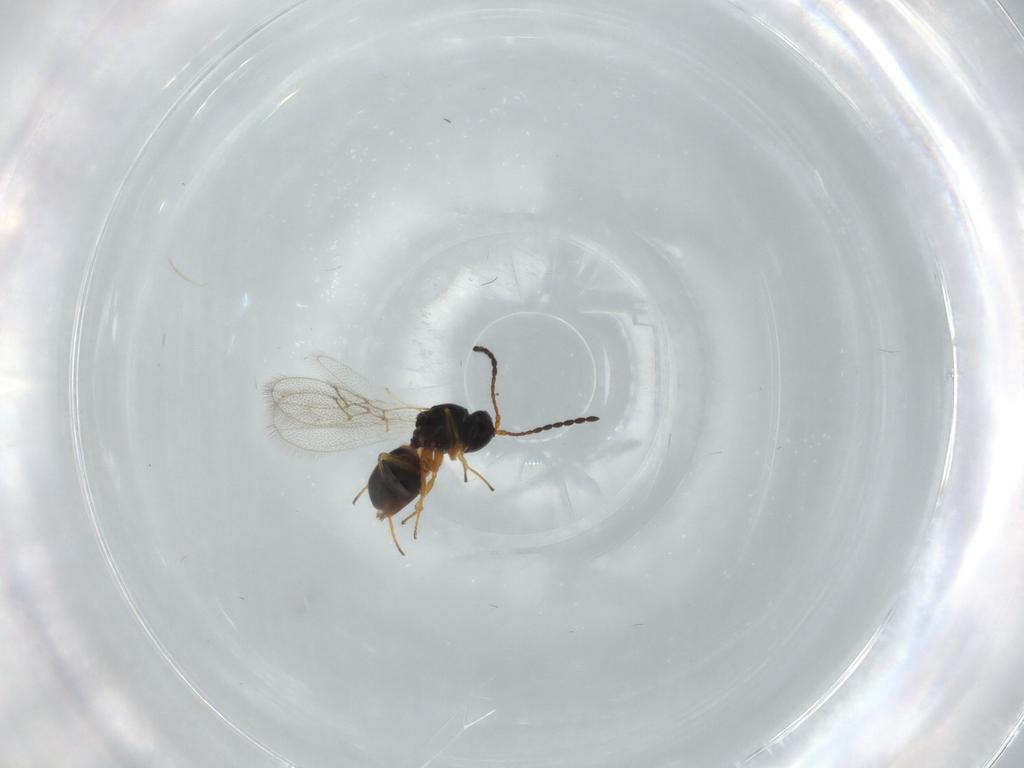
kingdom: Animalia
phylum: Arthropoda
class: Insecta
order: Hymenoptera
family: Figitidae
